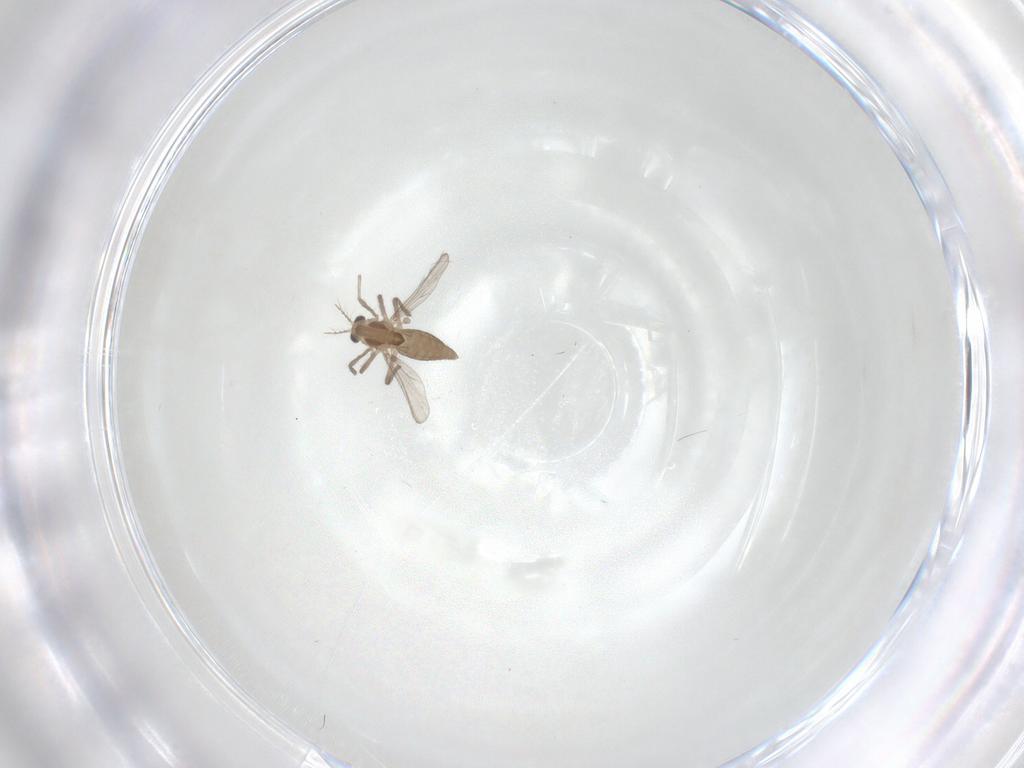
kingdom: Animalia
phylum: Arthropoda
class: Insecta
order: Diptera
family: Chironomidae
